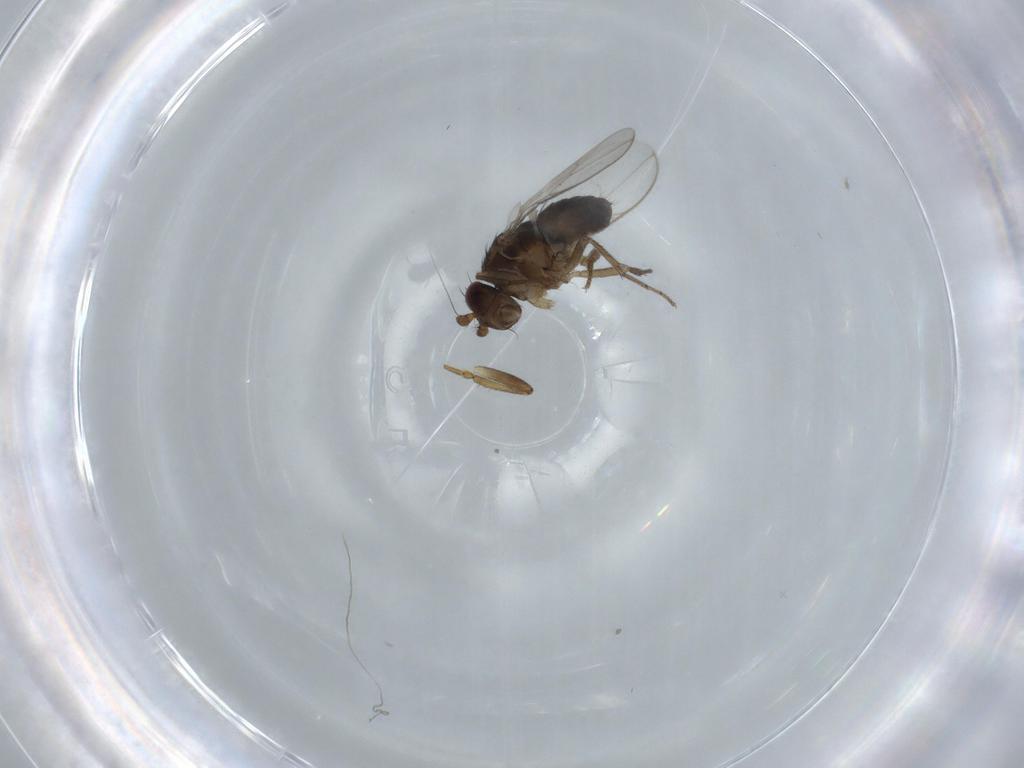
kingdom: Animalia
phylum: Arthropoda
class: Insecta
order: Diptera
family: Sphaeroceridae
